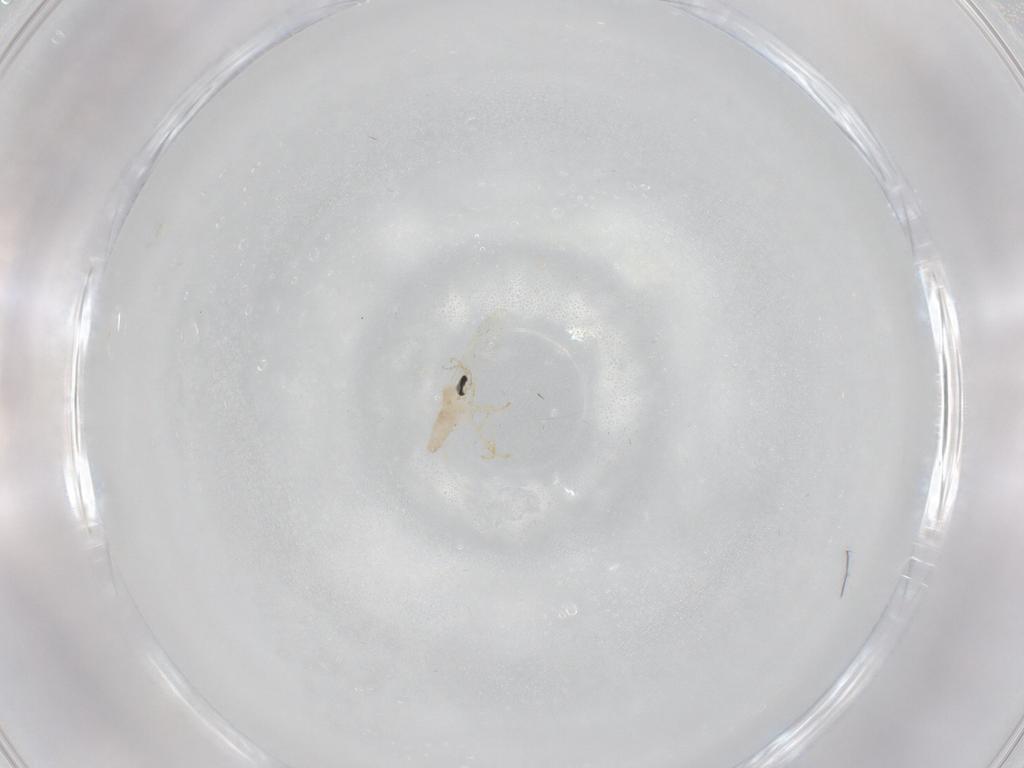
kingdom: Animalia
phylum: Arthropoda
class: Insecta
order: Diptera
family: Cecidomyiidae
